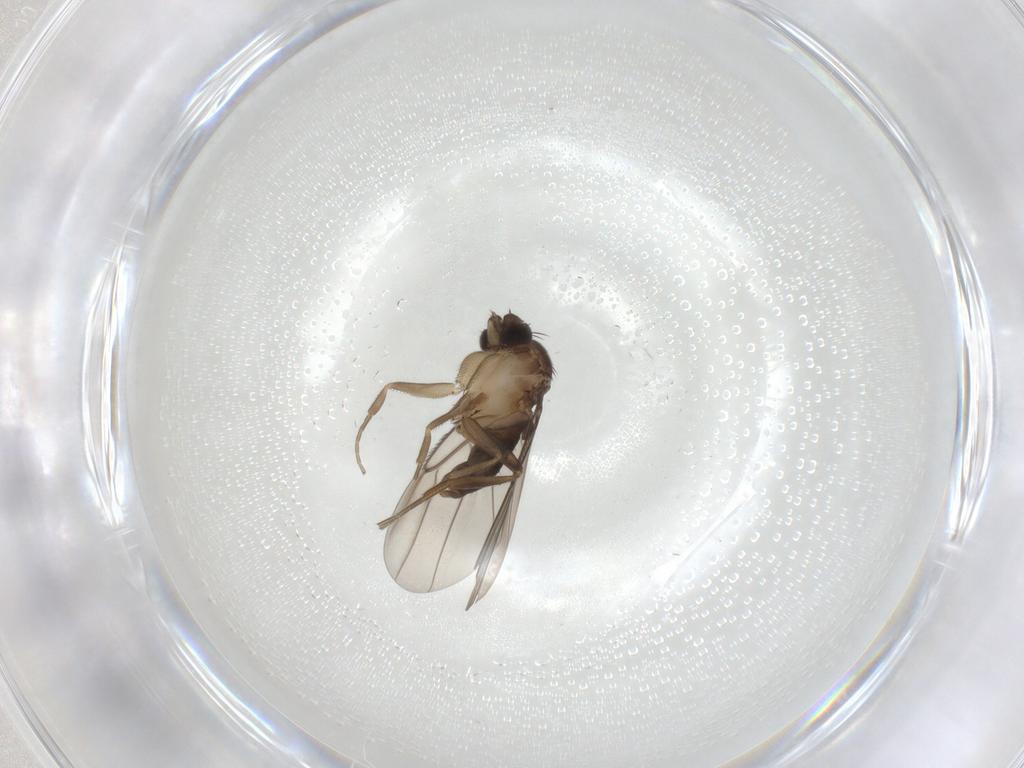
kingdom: Animalia
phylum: Arthropoda
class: Insecta
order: Diptera
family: Phoridae
